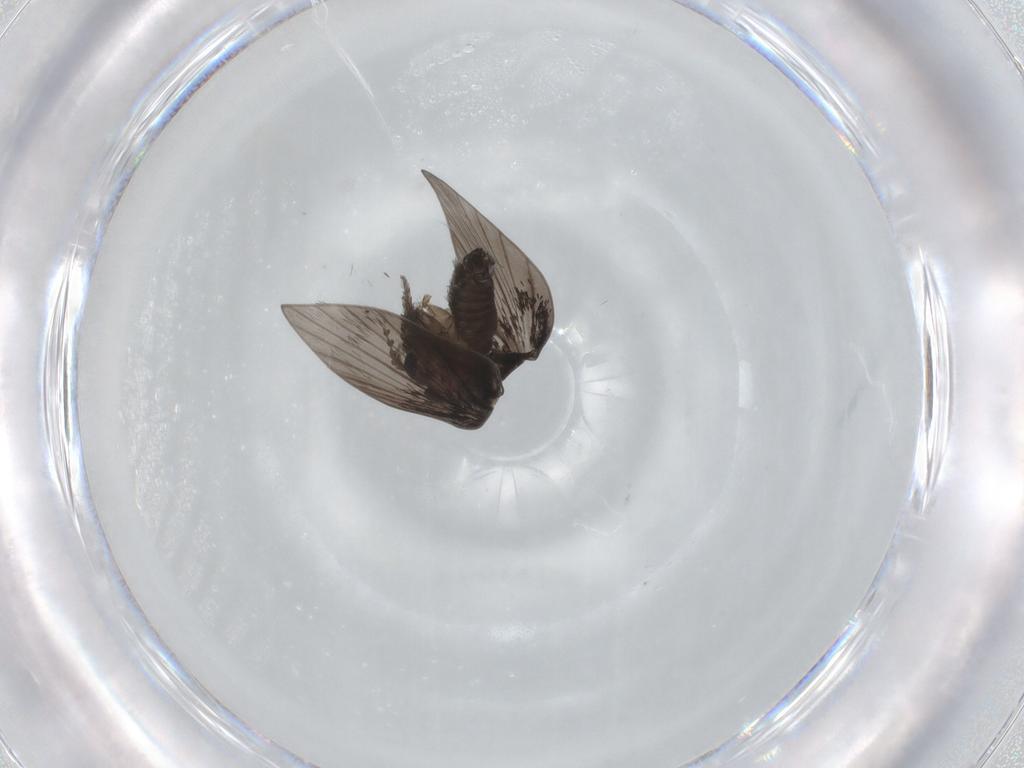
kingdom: Animalia
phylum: Arthropoda
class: Insecta
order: Diptera
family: Psychodidae
